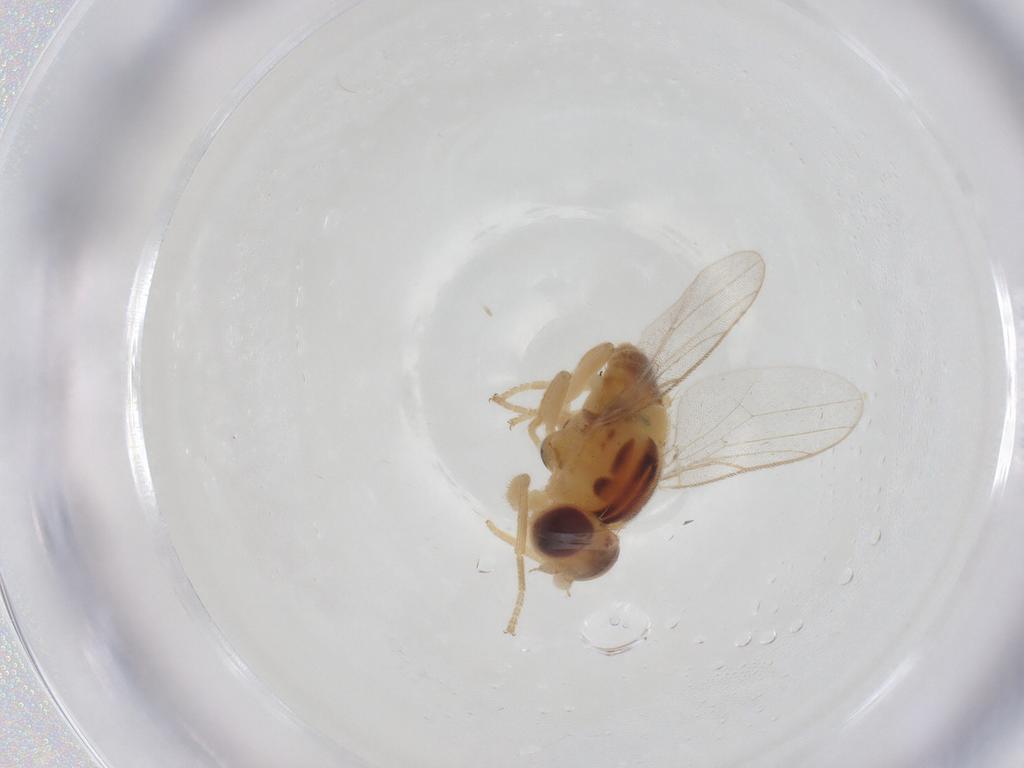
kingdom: Animalia
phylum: Arthropoda
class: Insecta
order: Diptera
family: Chloropidae
